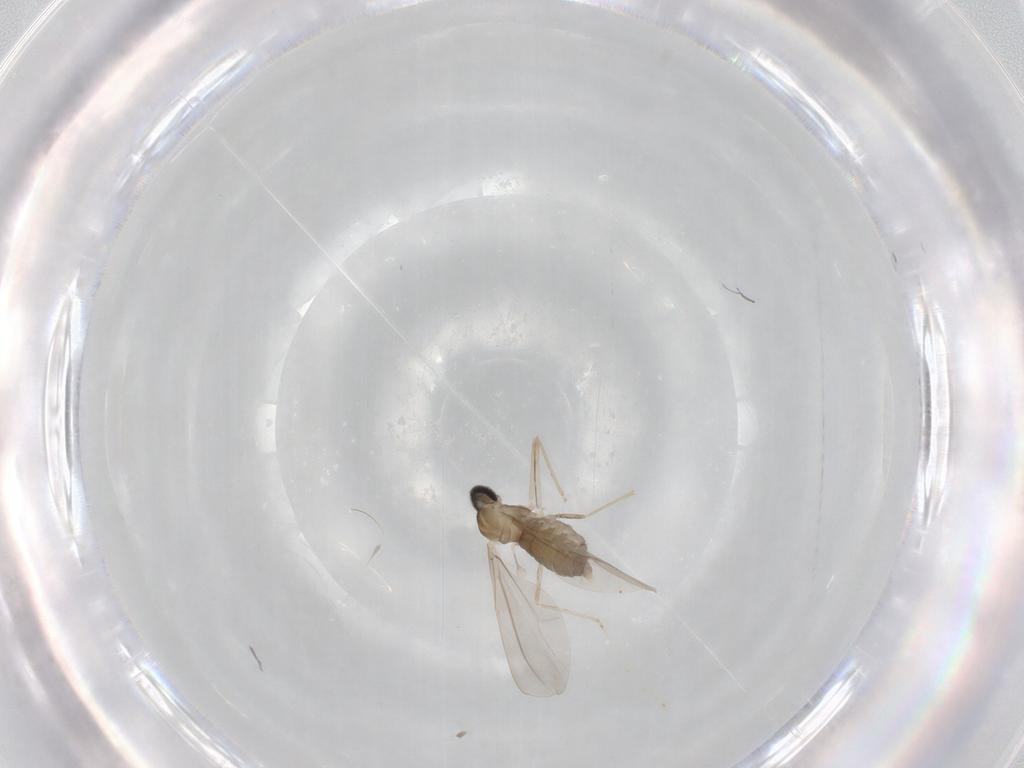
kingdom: Animalia
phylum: Arthropoda
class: Insecta
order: Diptera
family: Cecidomyiidae
